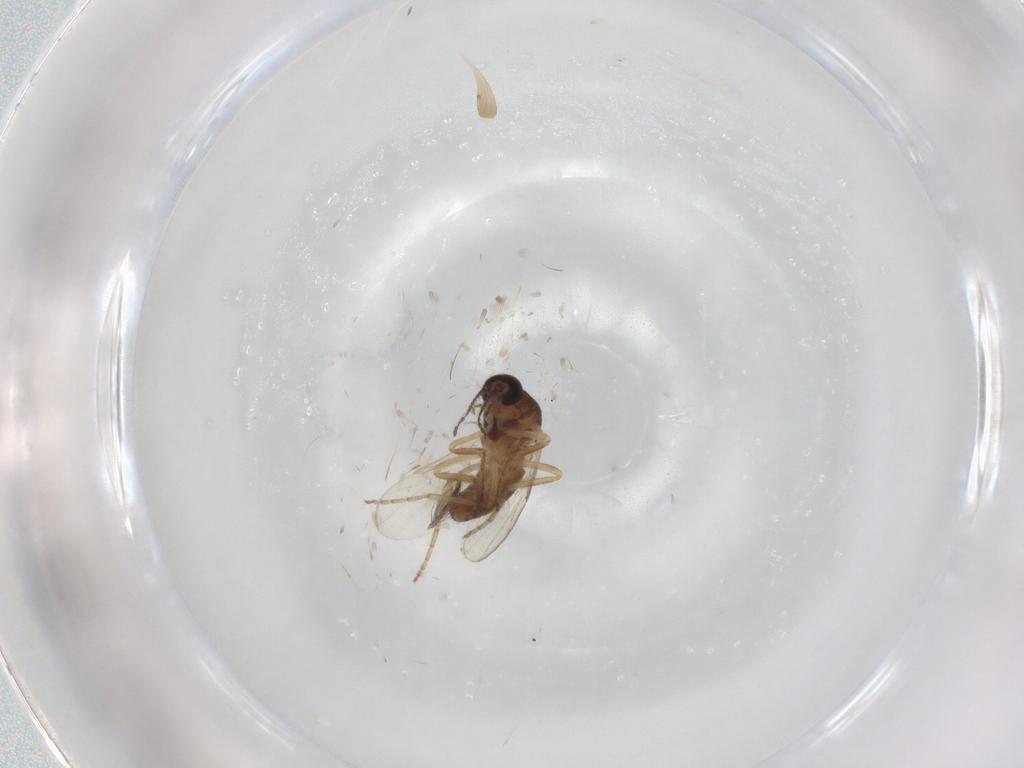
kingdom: Animalia
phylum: Arthropoda
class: Insecta
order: Diptera
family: Ceratopogonidae
